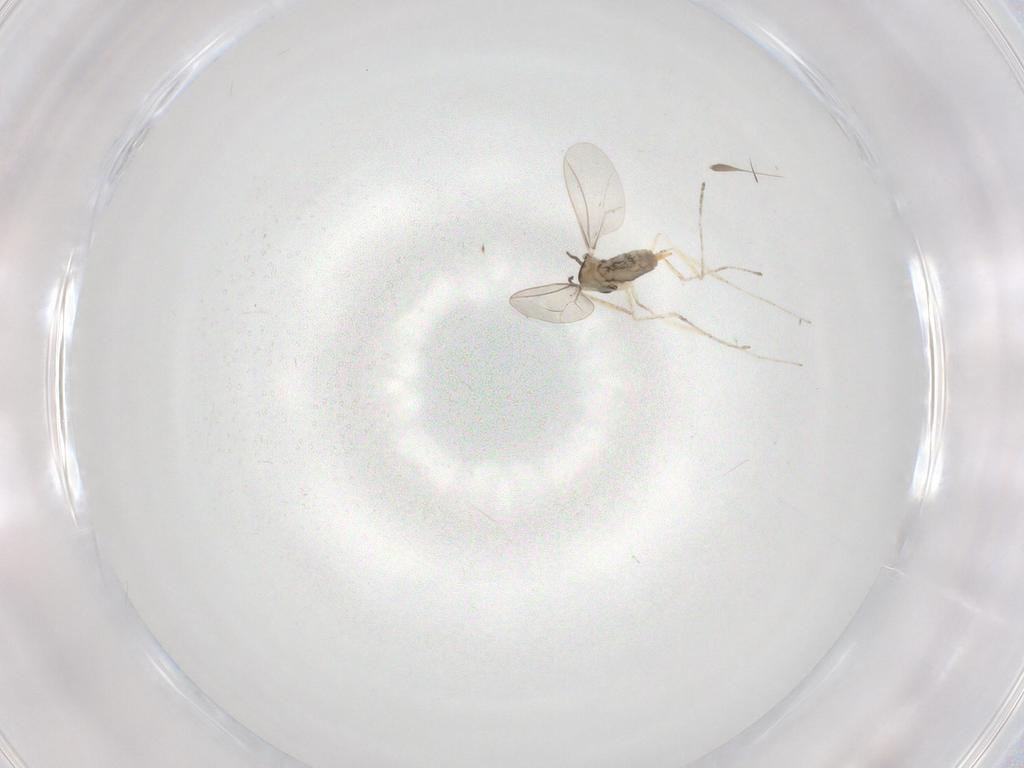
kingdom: Animalia
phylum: Arthropoda
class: Insecta
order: Diptera
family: Cecidomyiidae
